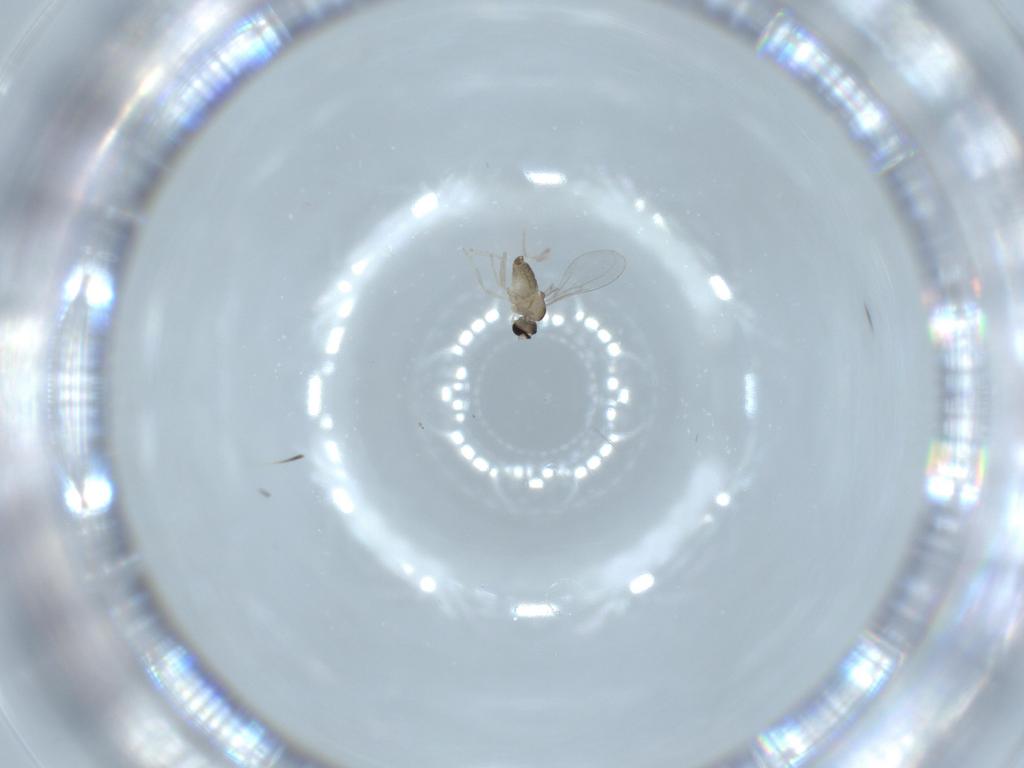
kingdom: Animalia
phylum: Arthropoda
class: Insecta
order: Diptera
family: Cecidomyiidae
